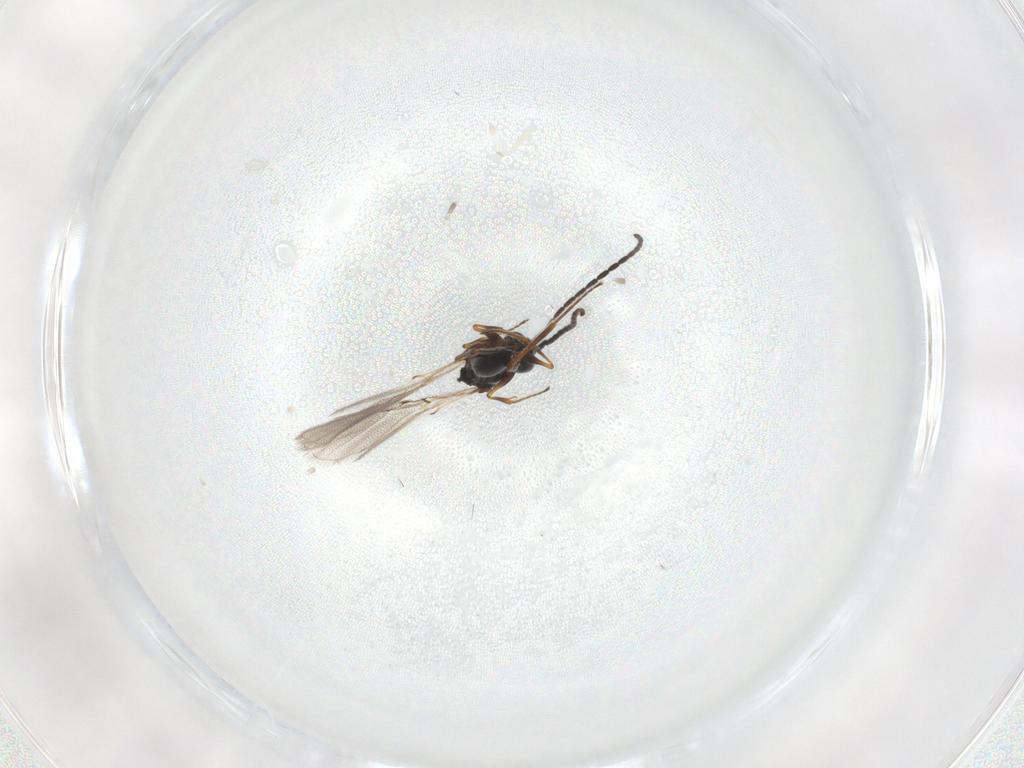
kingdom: Animalia
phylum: Arthropoda
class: Insecta
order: Hymenoptera
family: Figitidae
